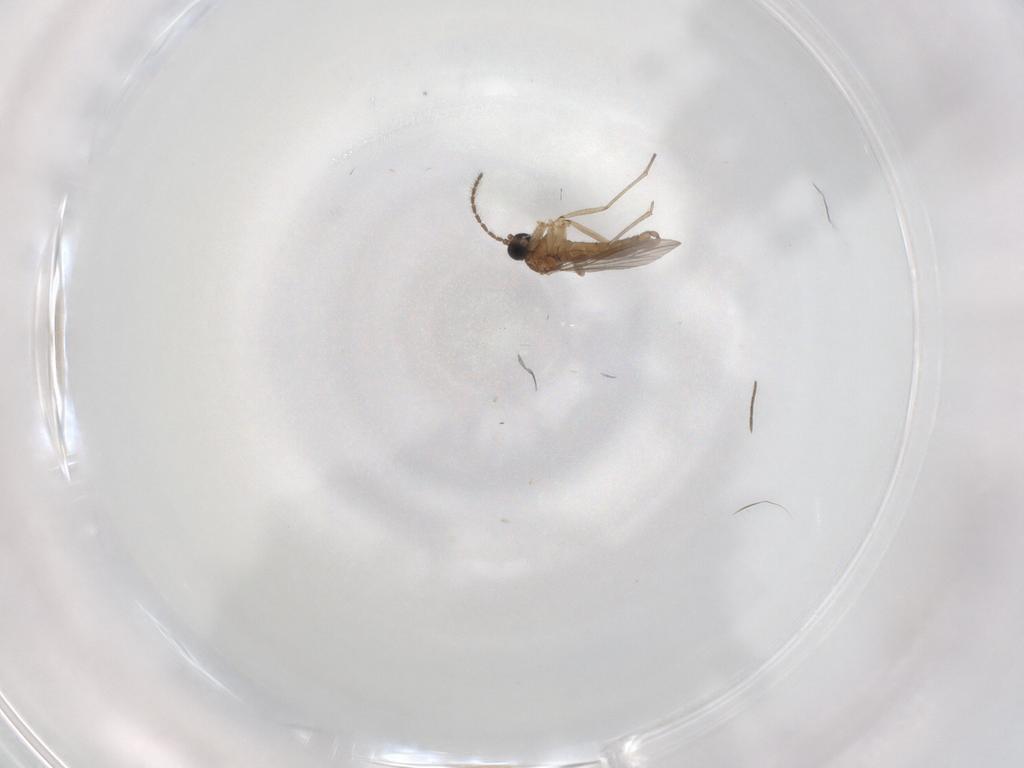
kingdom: Animalia
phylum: Arthropoda
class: Insecta
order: Diptera
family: Sciaridae
